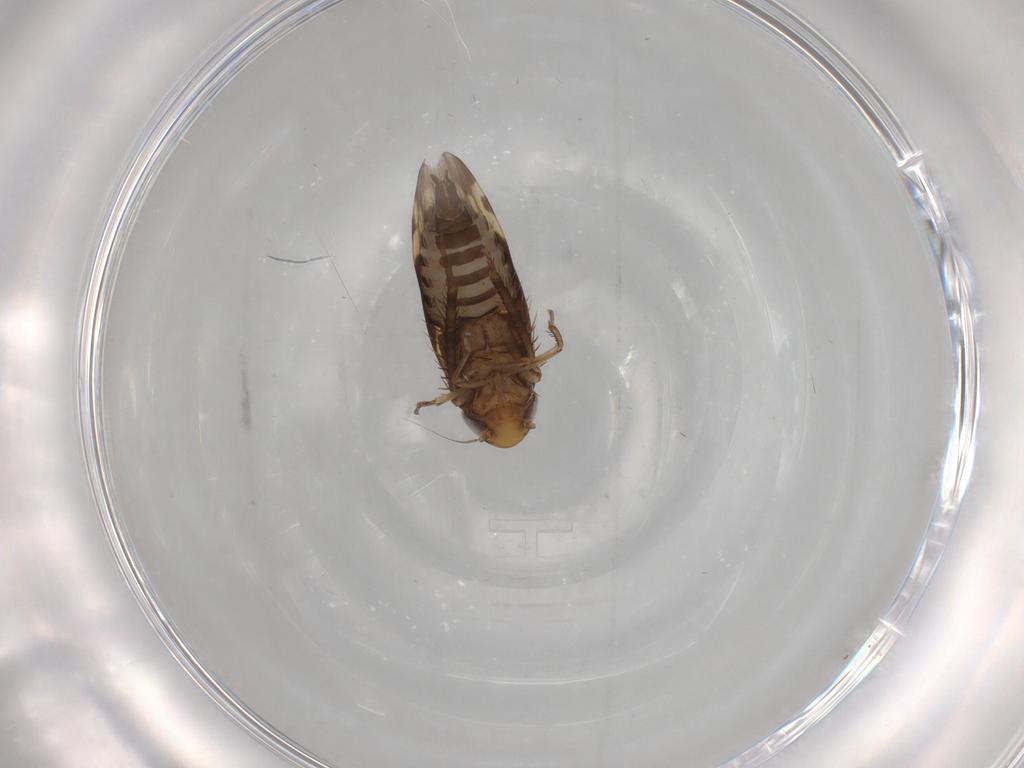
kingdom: Animalia
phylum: Arthropoda
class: Insecta
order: Hemiptera
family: Cicadellidae
